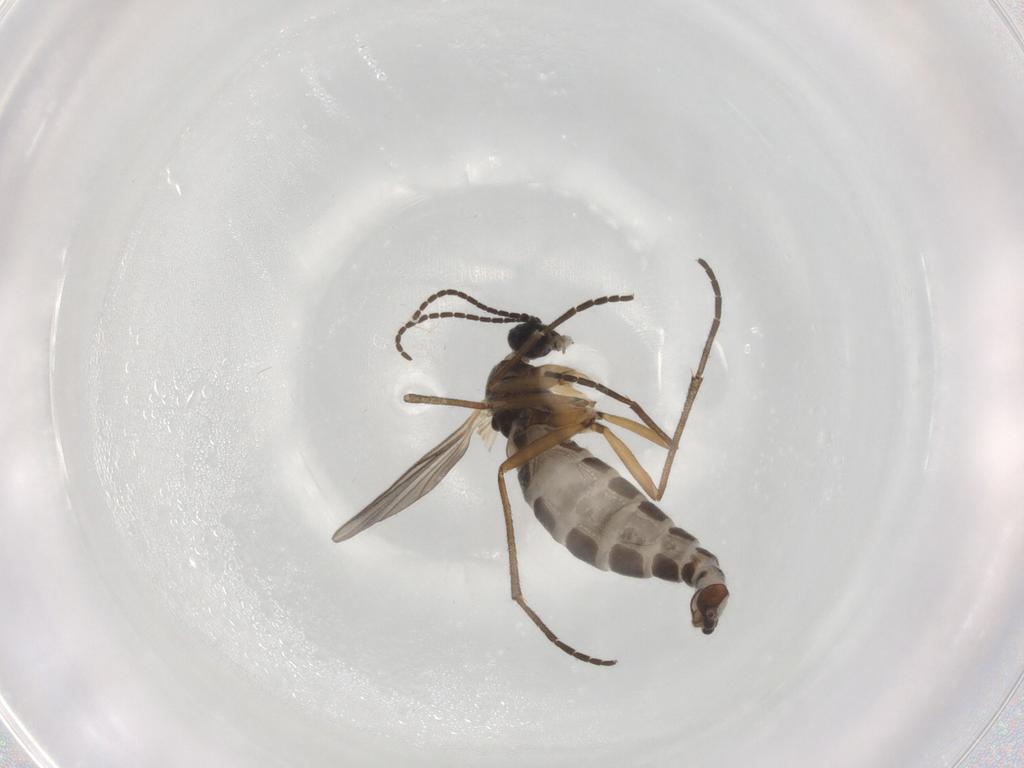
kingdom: Animalia
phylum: Arthropoda
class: Insecta
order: Diptera
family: Sciaridae
